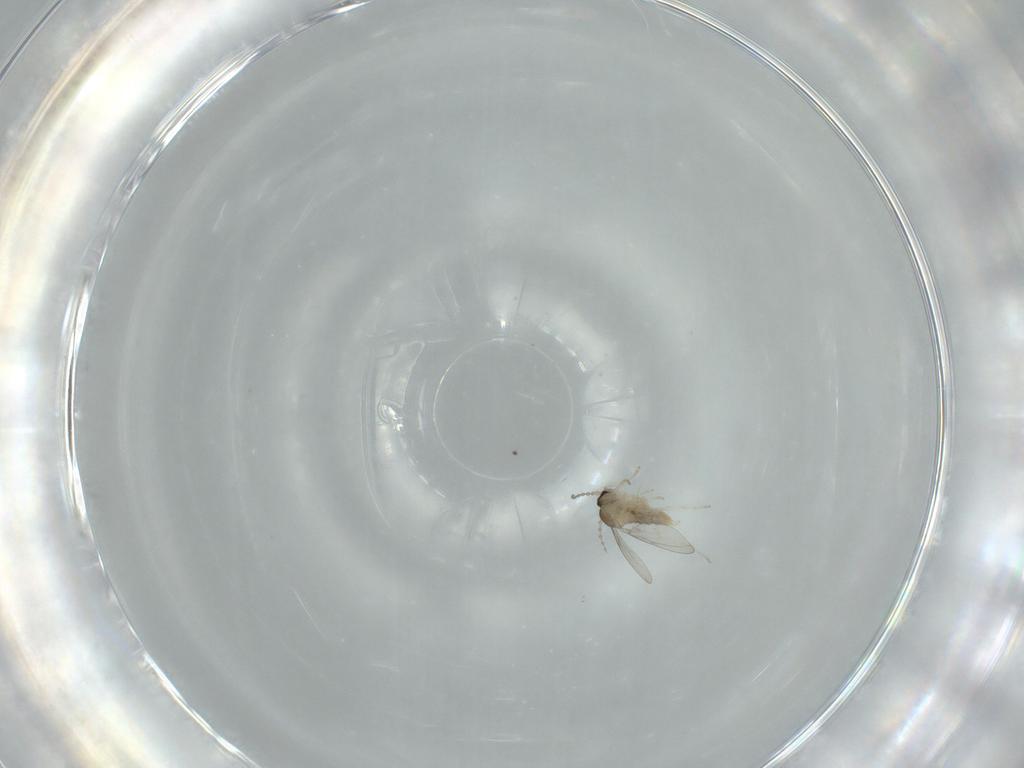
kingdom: Animalia
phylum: Arthropoda
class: Insecta
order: Diptera
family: Cecidomyiidae
